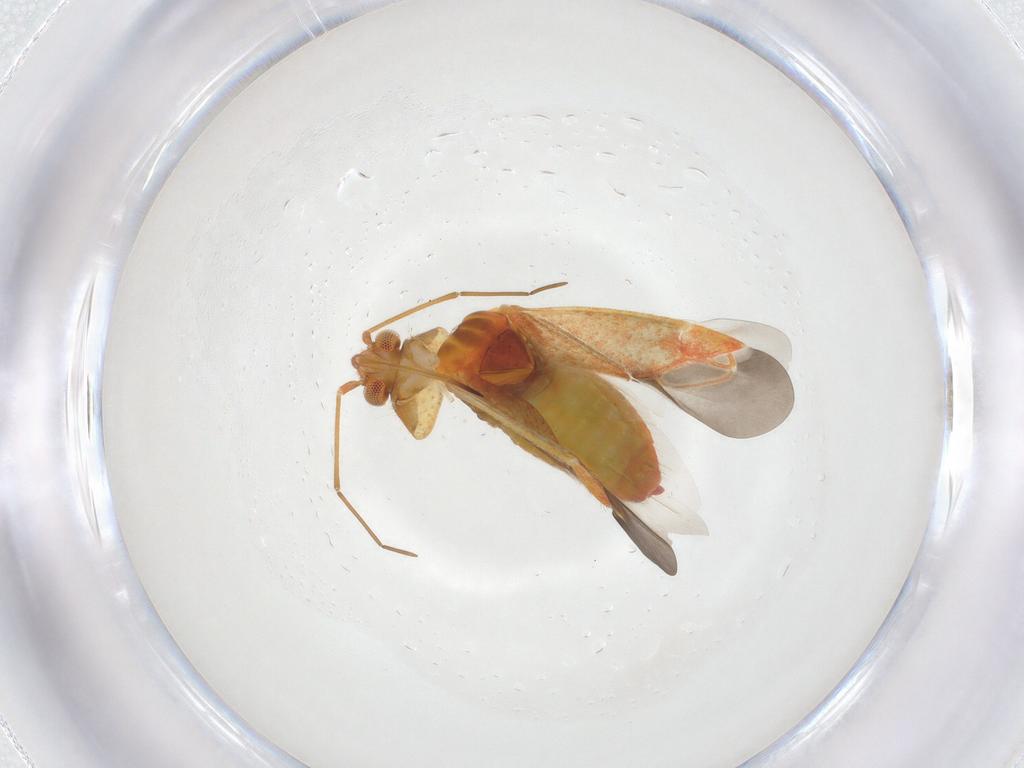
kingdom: Animalia
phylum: Arthropoda
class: Insecta
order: Hemiptera
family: Miridae
